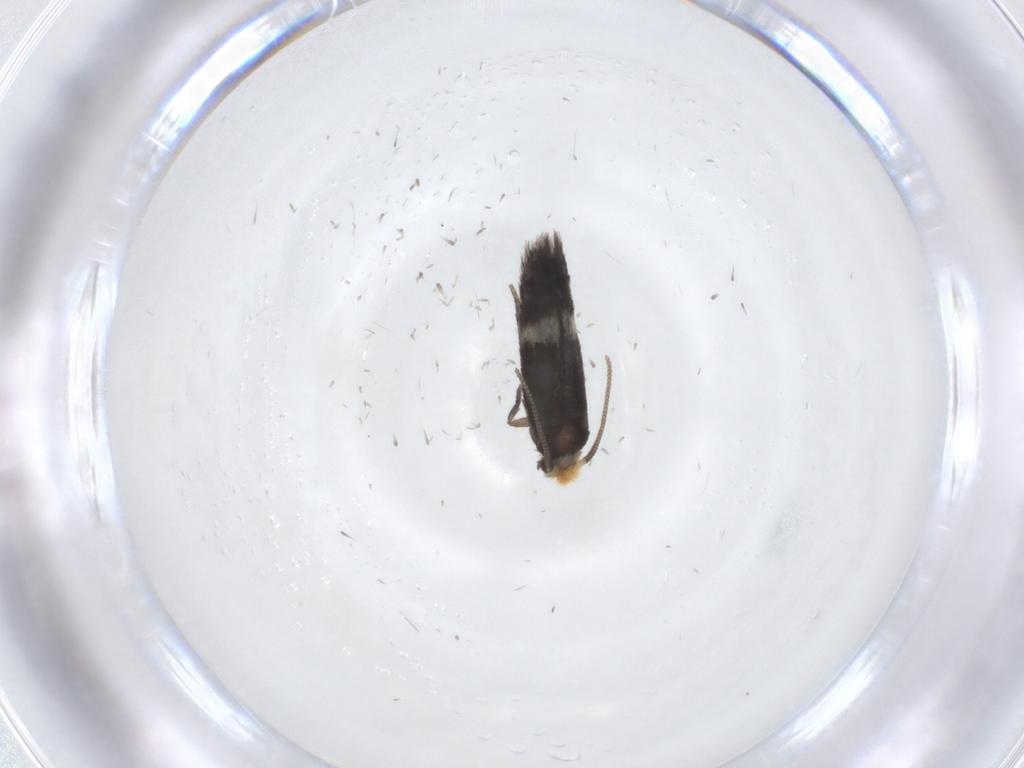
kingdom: Animalia
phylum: Arthropoda
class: Insecta
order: Lepidoptera
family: Nepticulidae
